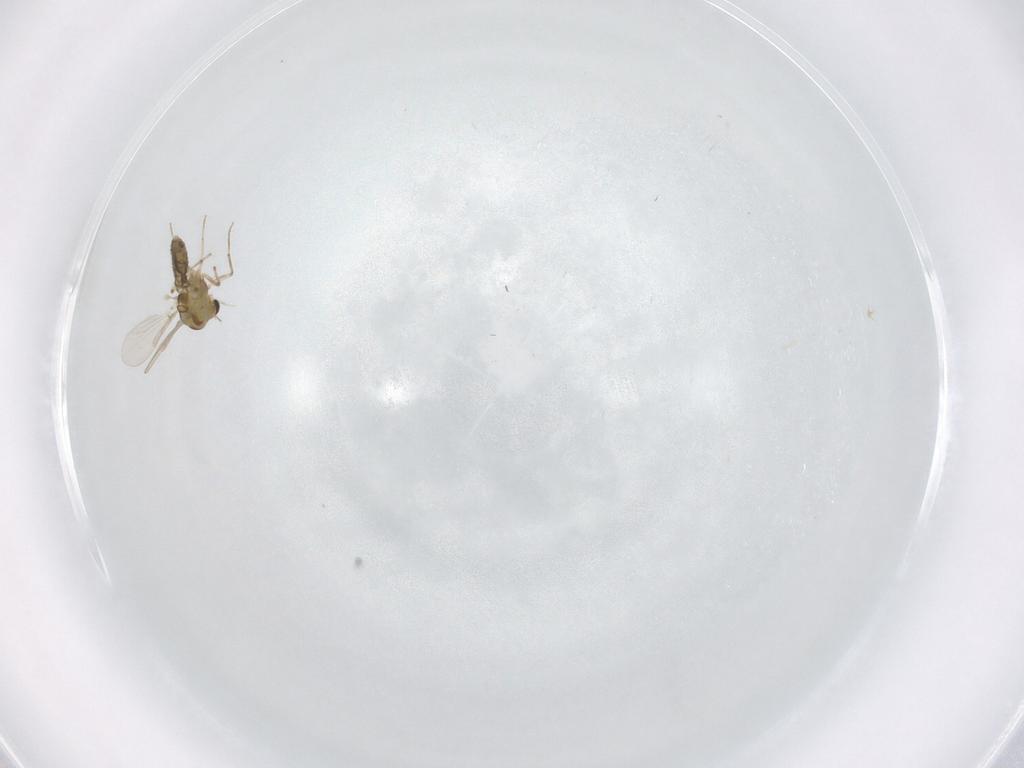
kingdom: Animalia
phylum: Arthropoda
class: Insecta
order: Diptera
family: Chironomidae
